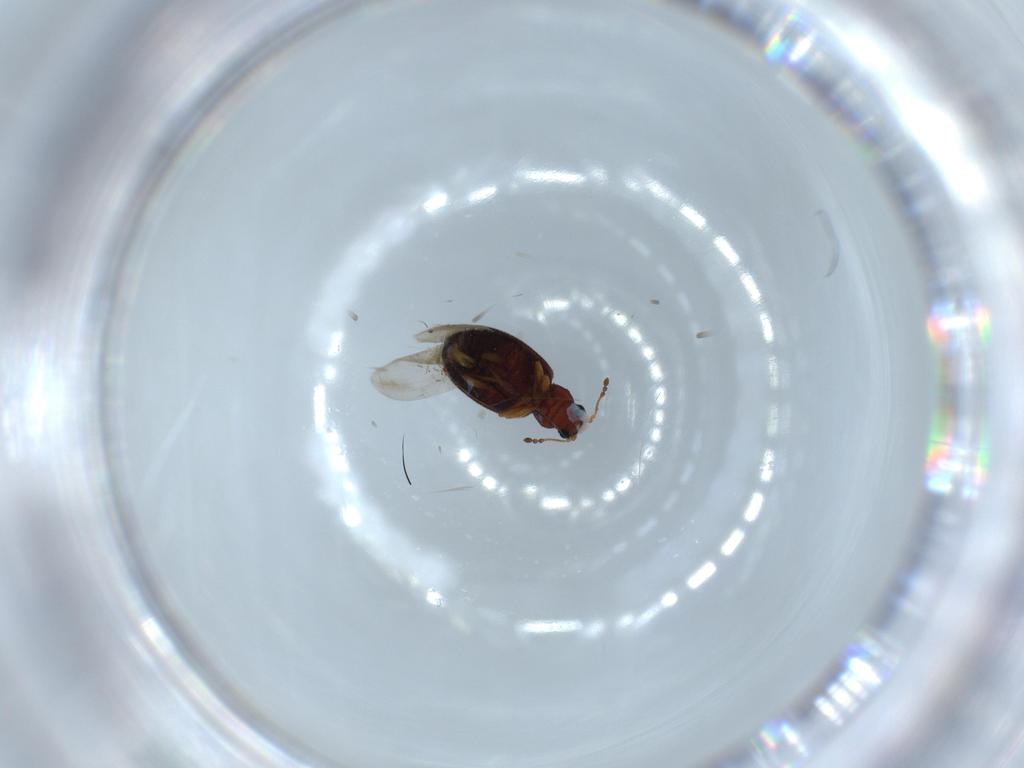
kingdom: Animalia
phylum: Arthropoda
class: Insecta
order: Coleoptera
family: Latridiidae
